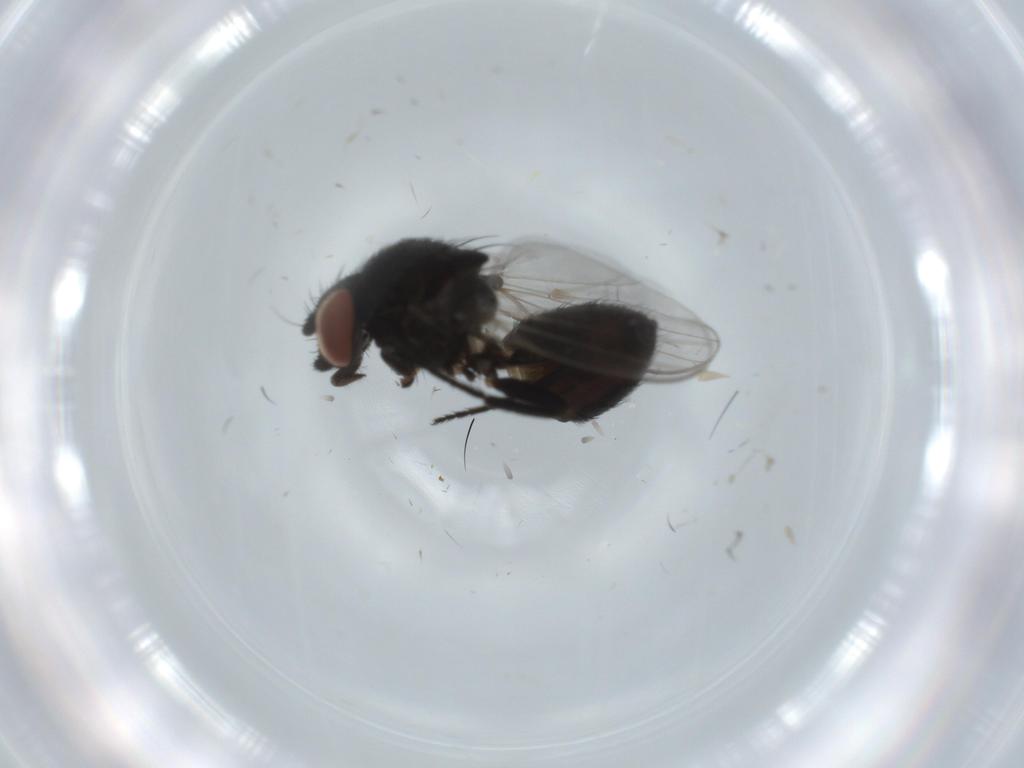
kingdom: Animalia
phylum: Arthropoda
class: Insecta
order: Diptera
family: Milichiidae
